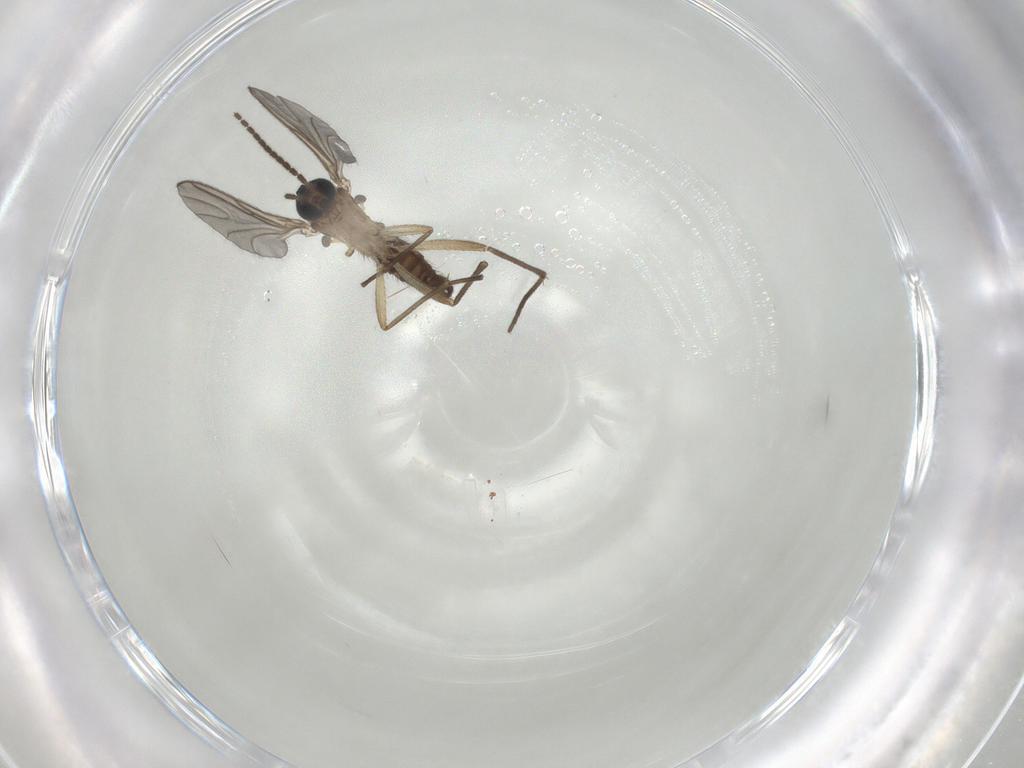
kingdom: Animalia
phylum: Arthropoda
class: Insecta
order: Diptera
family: Sciaridae
